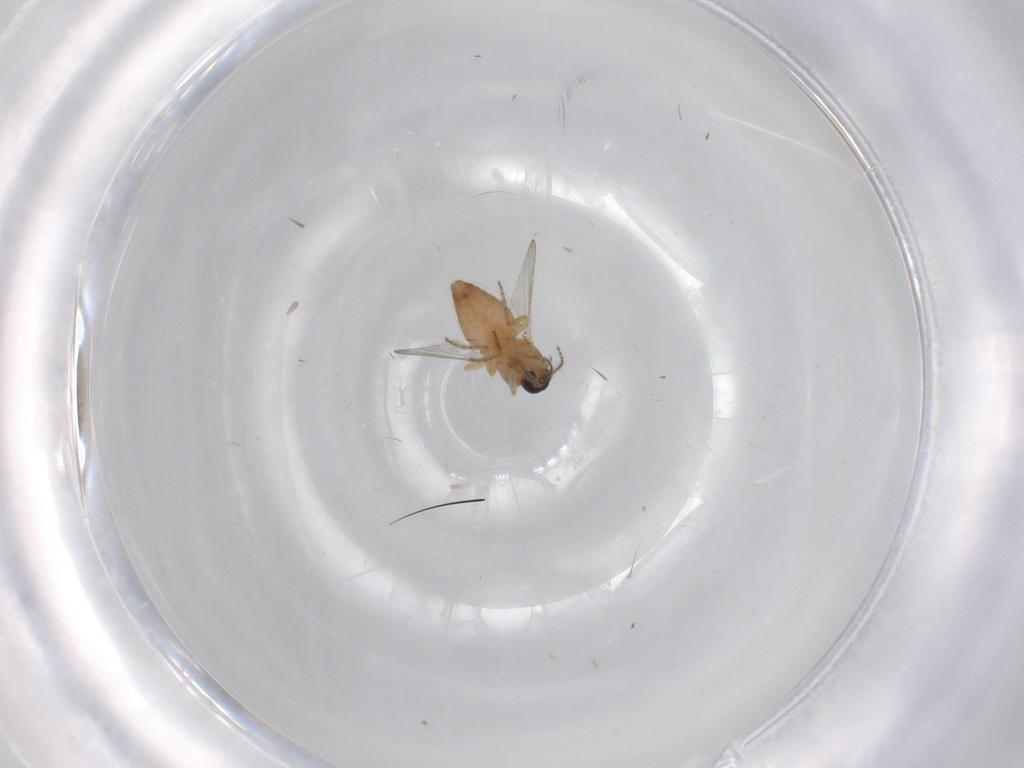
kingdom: Animalia
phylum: Arthropoda
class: Insecta
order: Diptera
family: Ceratopogonidae
